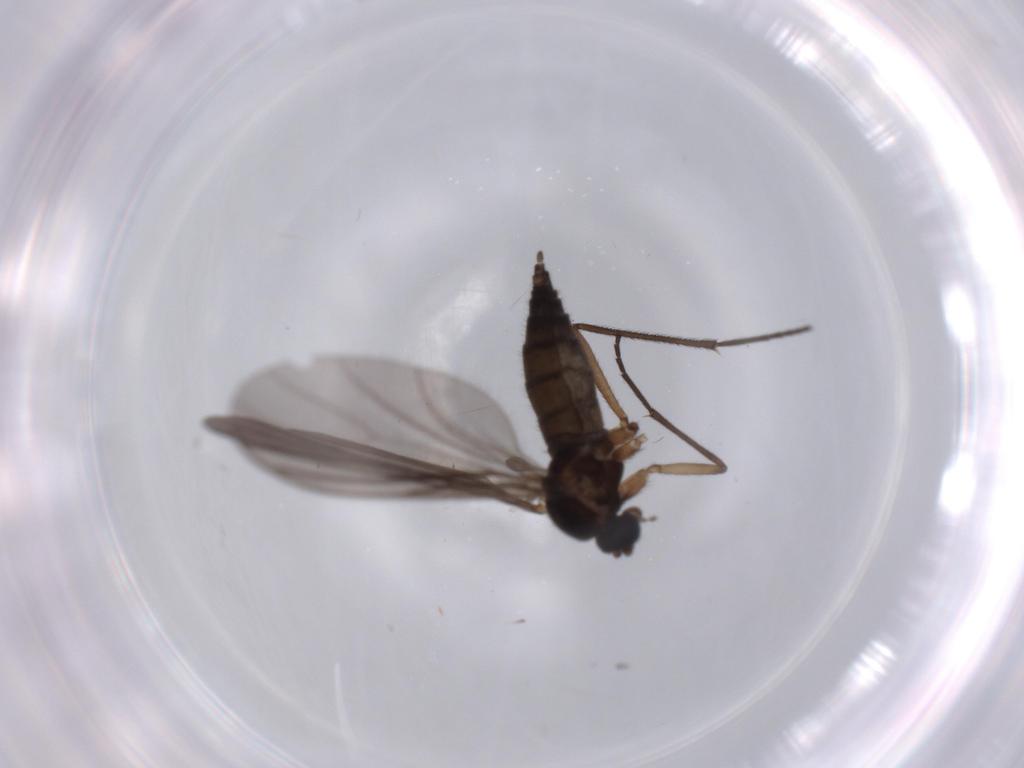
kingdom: Animalia
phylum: Arthropoda
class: Insecta
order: Diptera
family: Sciaridae
